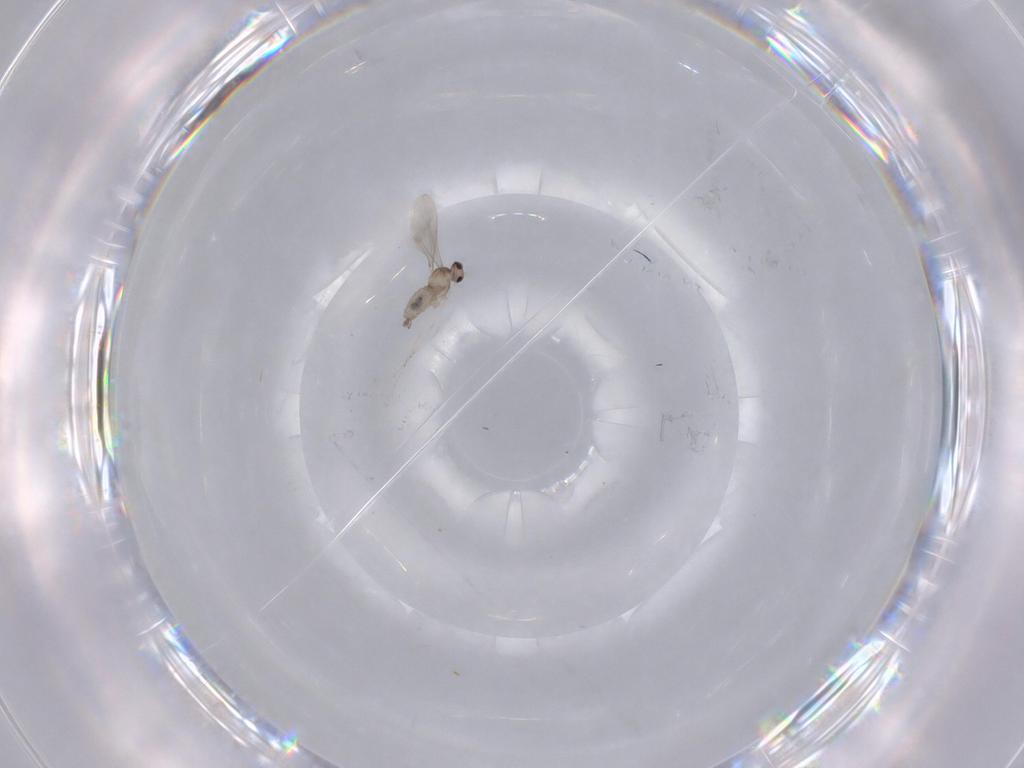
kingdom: Animalia
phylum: Arthropoda
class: Insecta
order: Diptera
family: Cecidomyiidae
